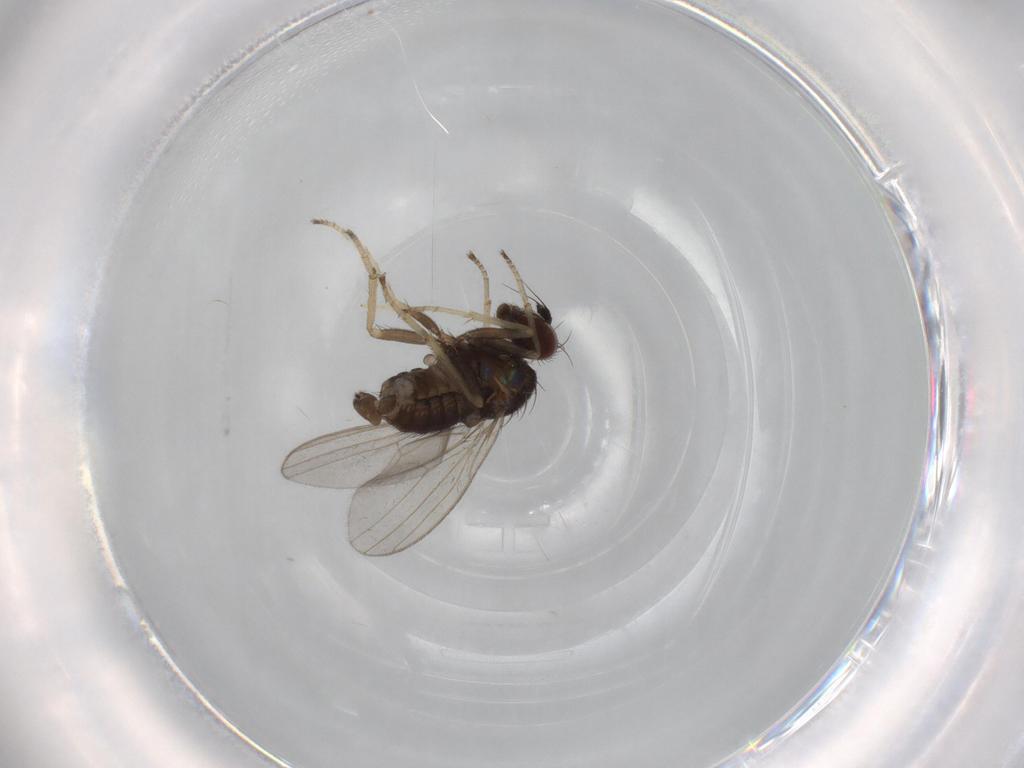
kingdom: Animalia
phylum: Arthropoda
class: Insecta
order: Diptera
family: Dolichopodidae
